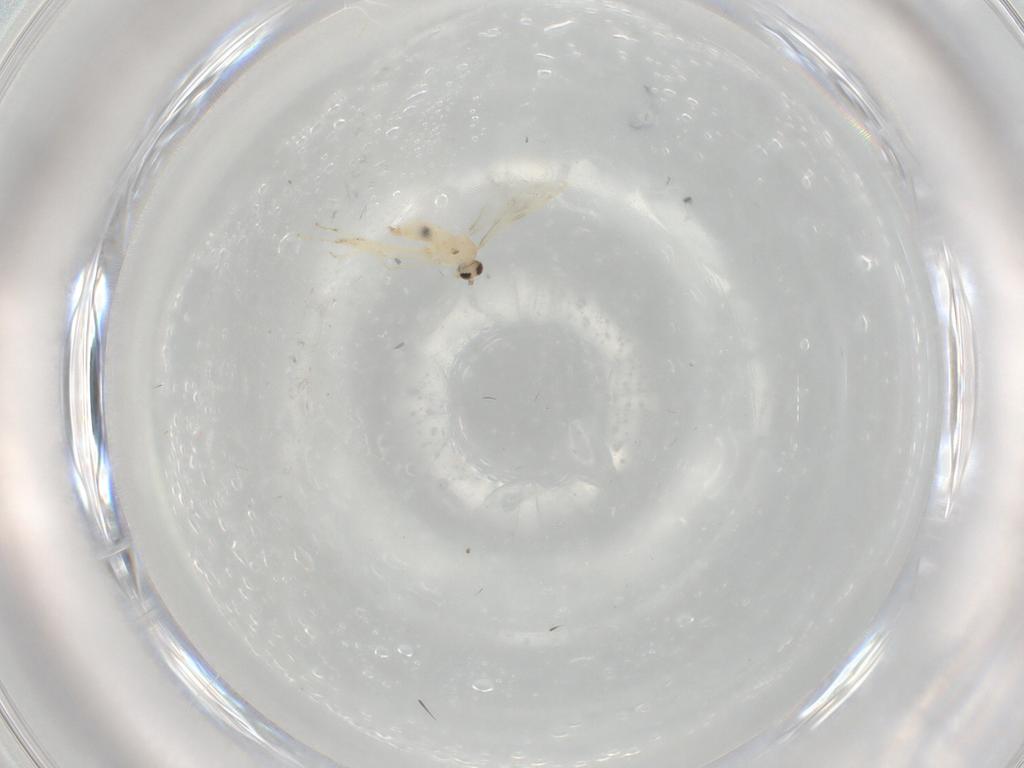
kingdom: Animalia
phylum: Arthropoda
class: Insecta
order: Diptera
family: Cecidomyiidae
